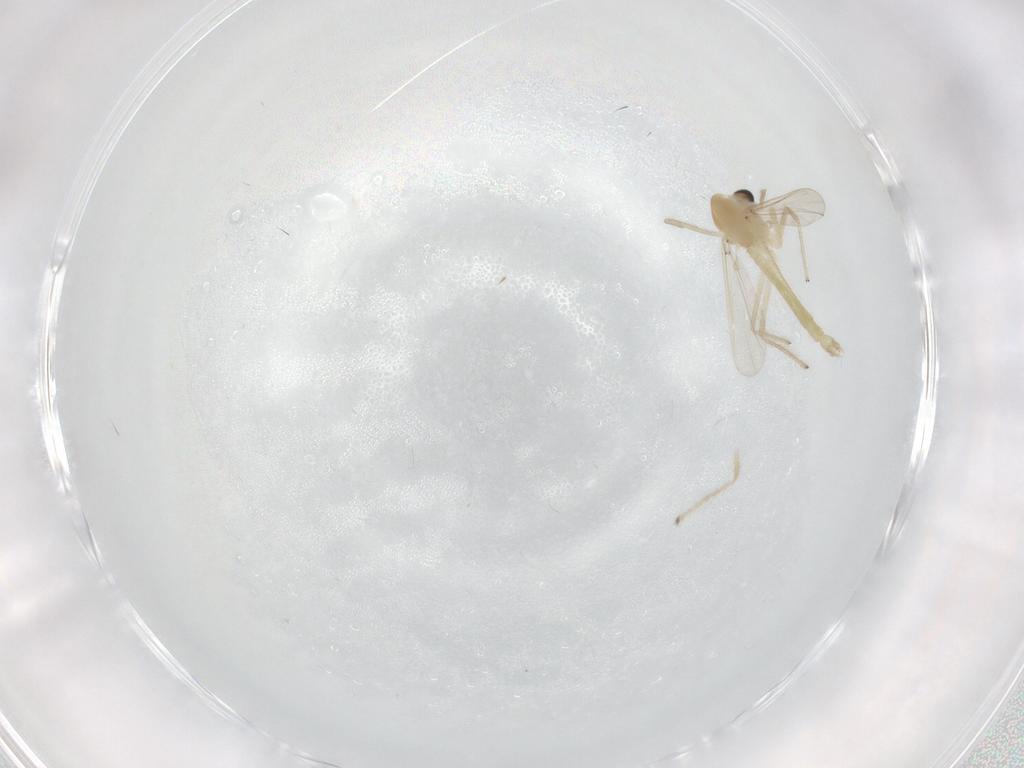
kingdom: Animalia
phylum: Arthropoda
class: Insecta
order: Diptera
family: Chironomidae
